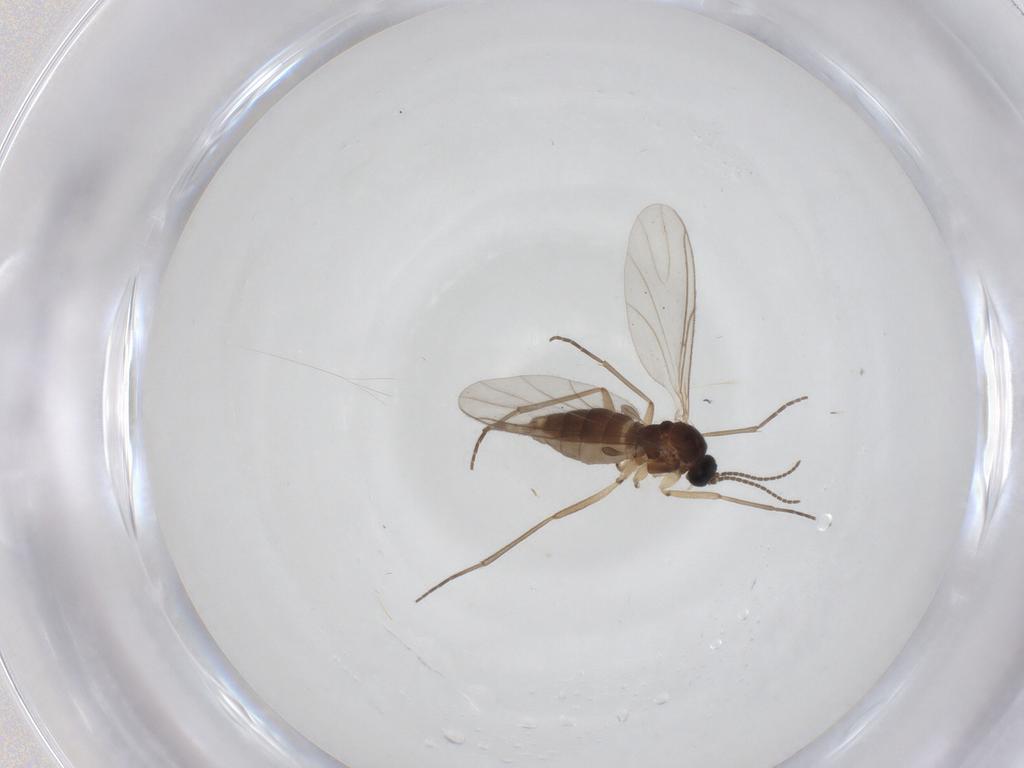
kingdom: Animalia
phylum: Arthropoda
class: Insecta
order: Diptera
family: Sciaridae
